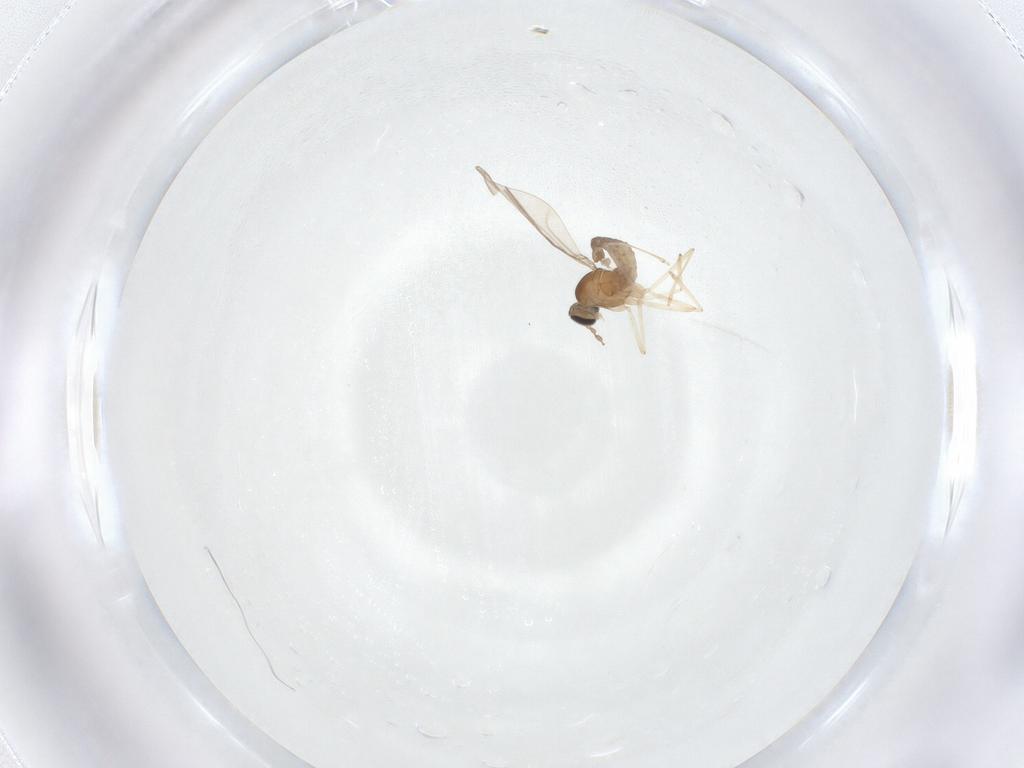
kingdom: Animalia
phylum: Arthropoda
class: Insecta
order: Diptera
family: Cecidomyiidae
